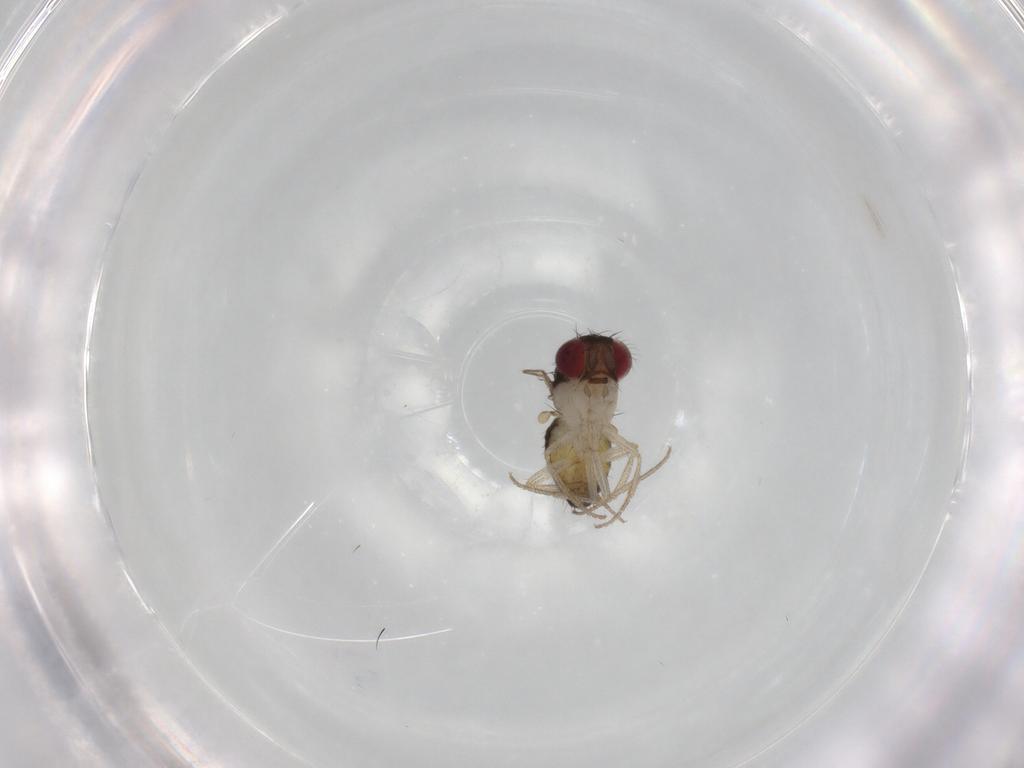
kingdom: Animalia
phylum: Arthropoda
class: Insecta
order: Diptera
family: Drosophilidae
